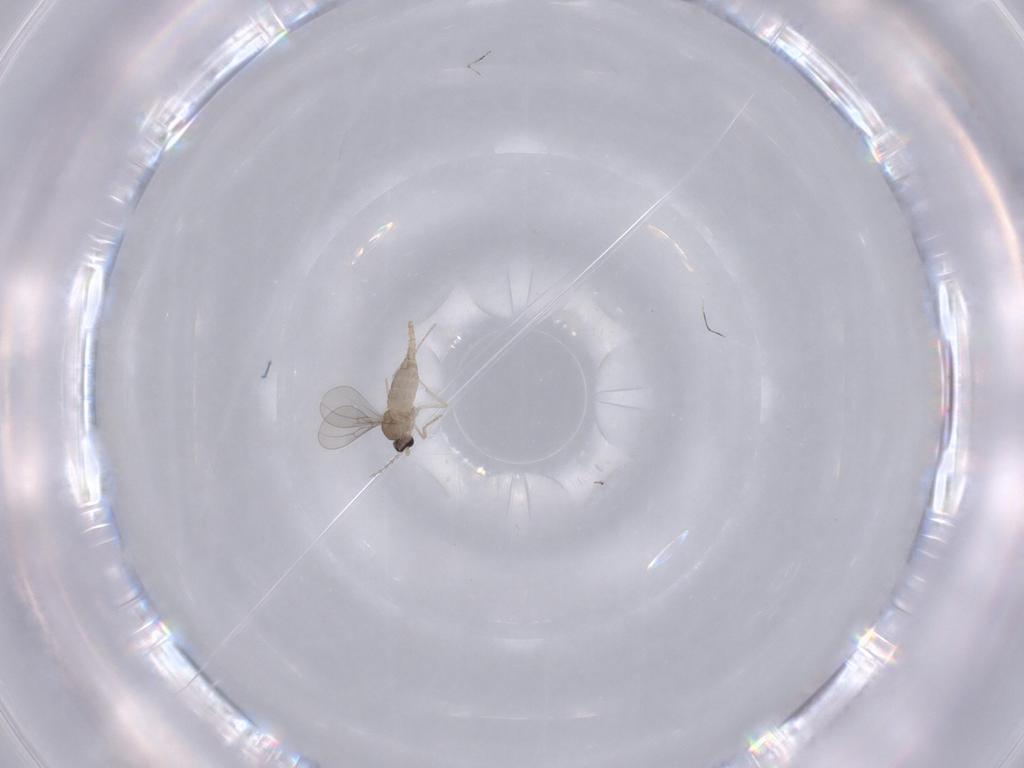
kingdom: Animalia
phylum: Arthropoda
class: Insecta
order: Diptera
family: Cecidomyiidae
